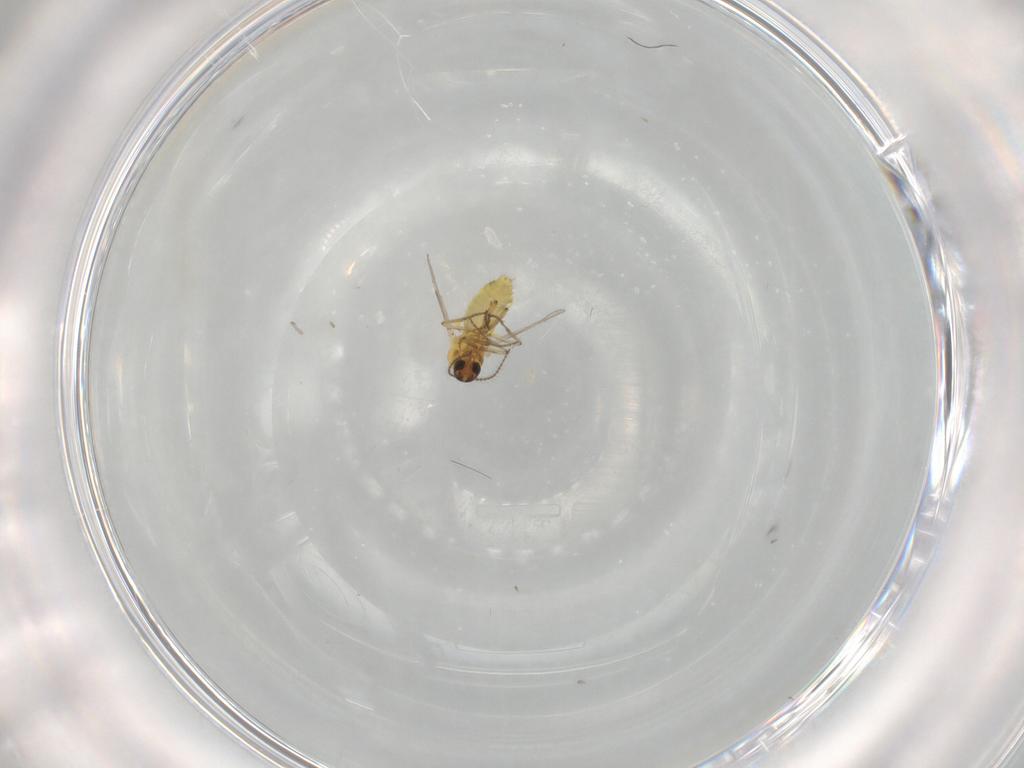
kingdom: Animalia
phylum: Arthropoda
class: Insecta
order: Diptera
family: Ceratopogonidae
